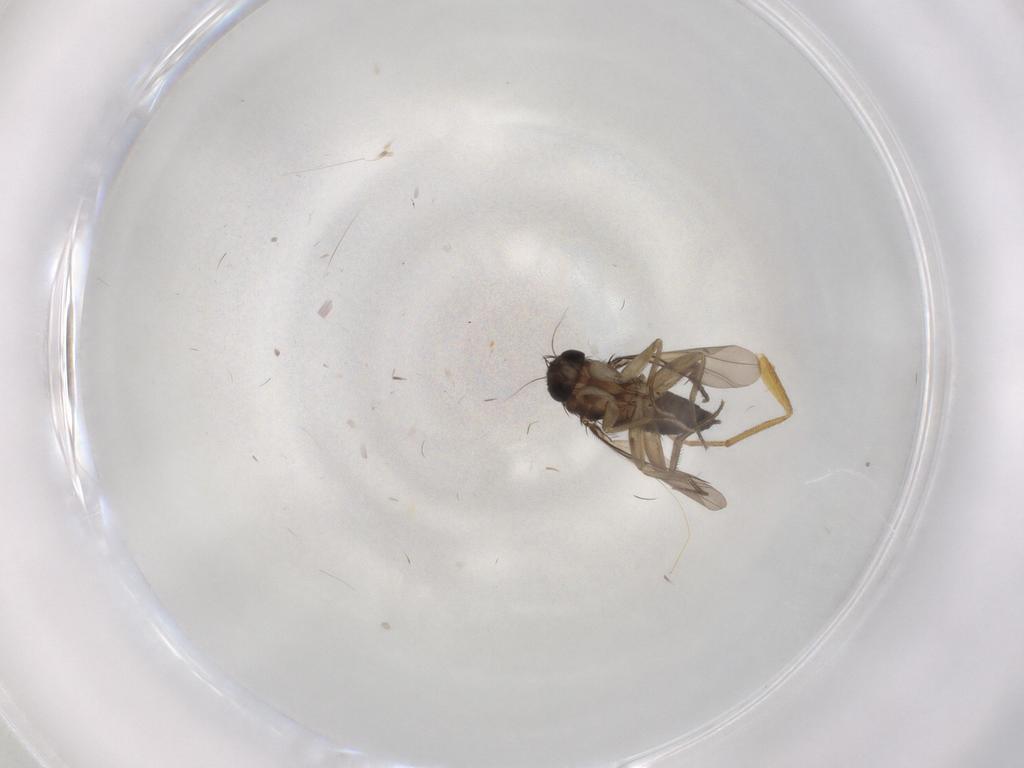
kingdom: Animalia
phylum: Arthropoda
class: Insecta
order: Diptera
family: Dolichopodidae
